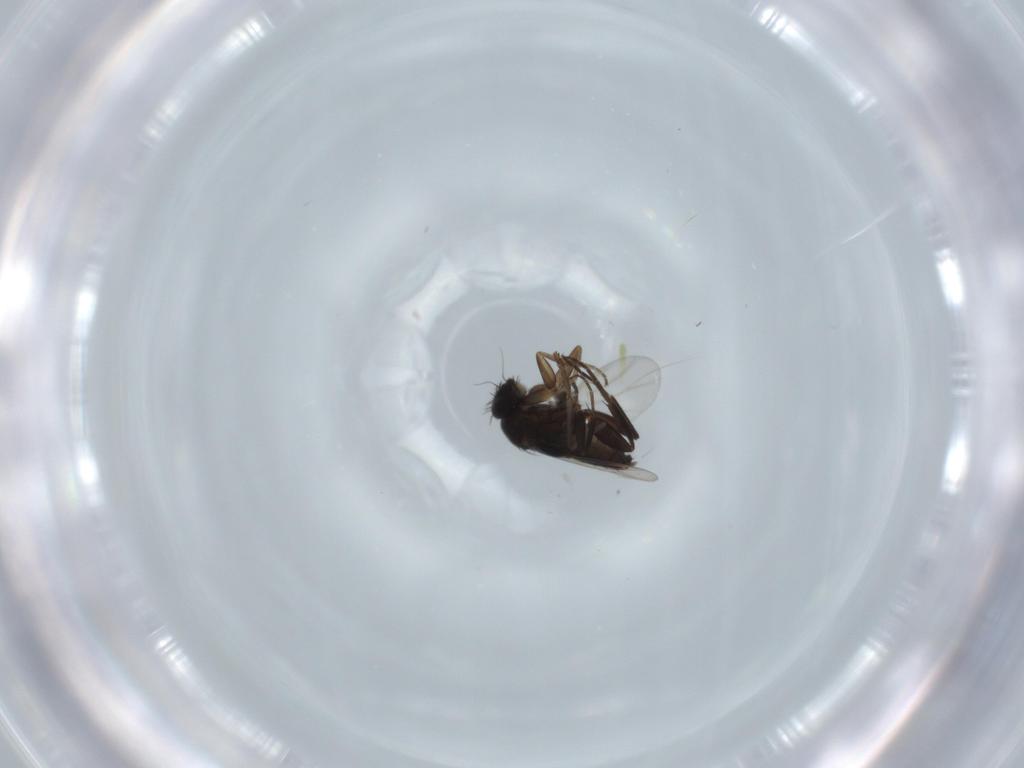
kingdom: Animalia
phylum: Arthropoda
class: Insecta
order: Diptera
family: Phoridae
